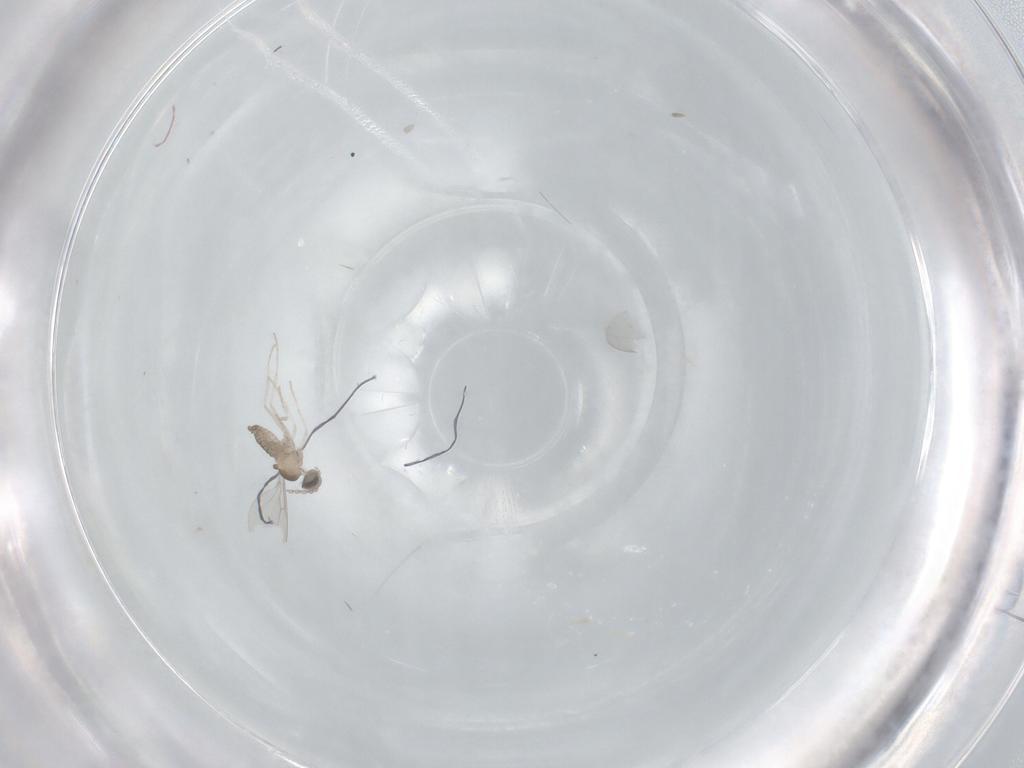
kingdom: Animalia
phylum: Arthropoda
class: Insecta
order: Diptera
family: Cecidomyiidae
